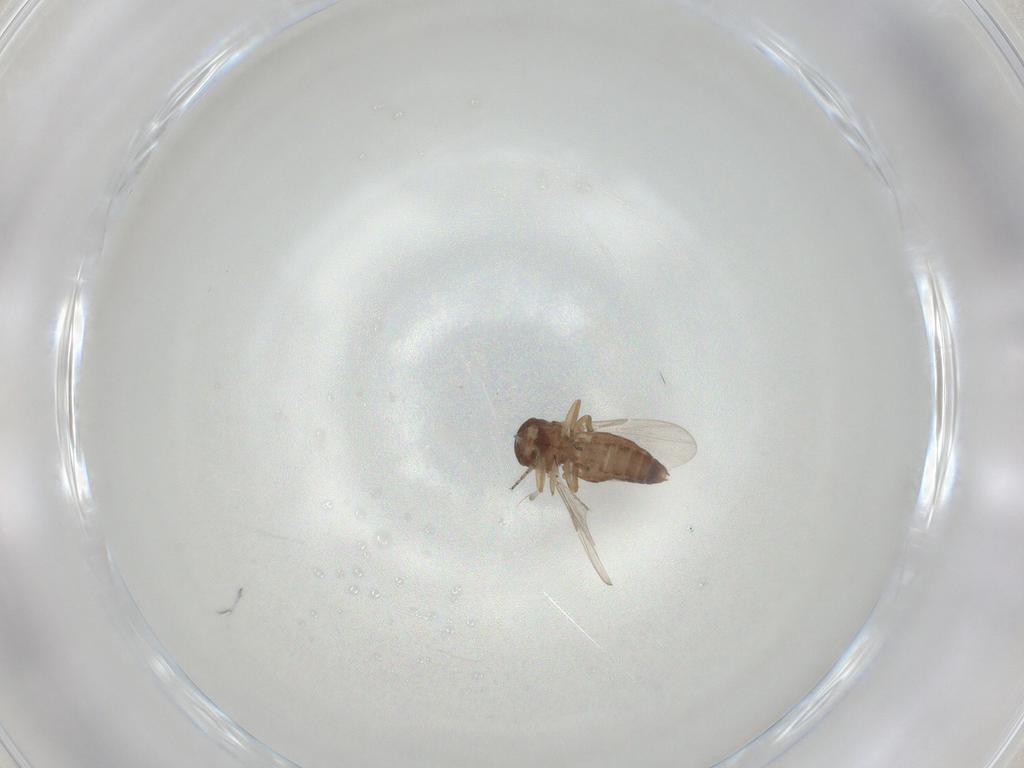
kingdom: Animalia
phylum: Arthropoda
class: Insecta
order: Diptera
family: Ceratopogonidae
